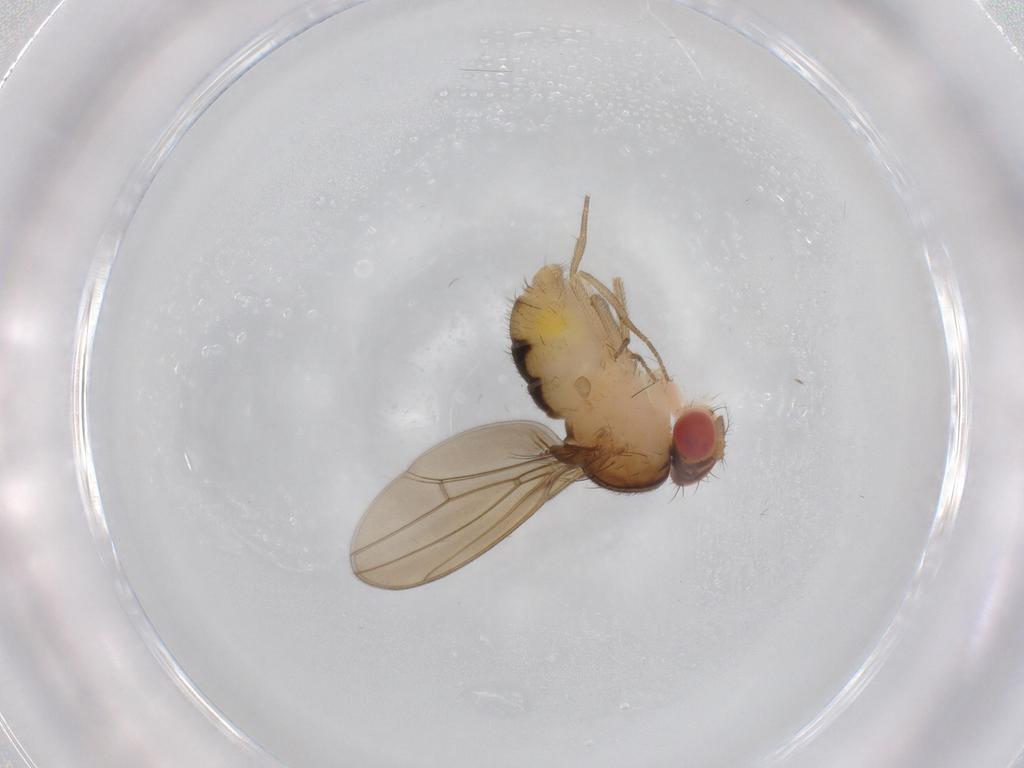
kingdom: Animalia
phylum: Arthropoda
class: Insecta
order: Diptera
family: Drosophilidae
